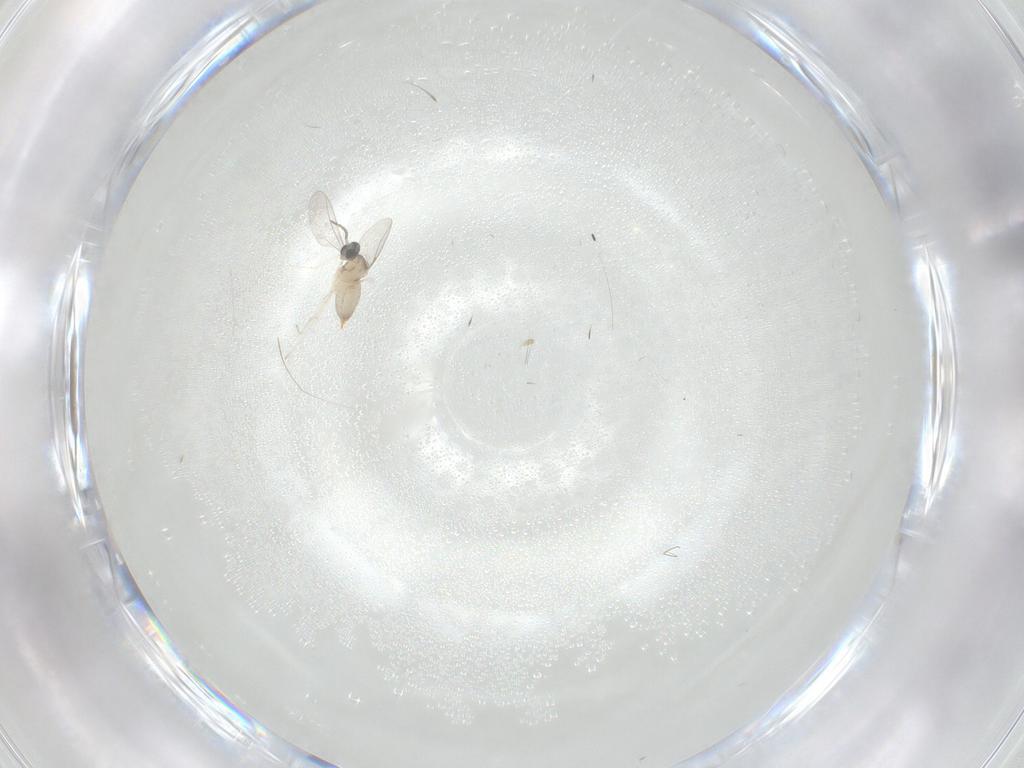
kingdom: Animalia
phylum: Arthropoda
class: Insecta
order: Diptera
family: Cecidomyiidae
